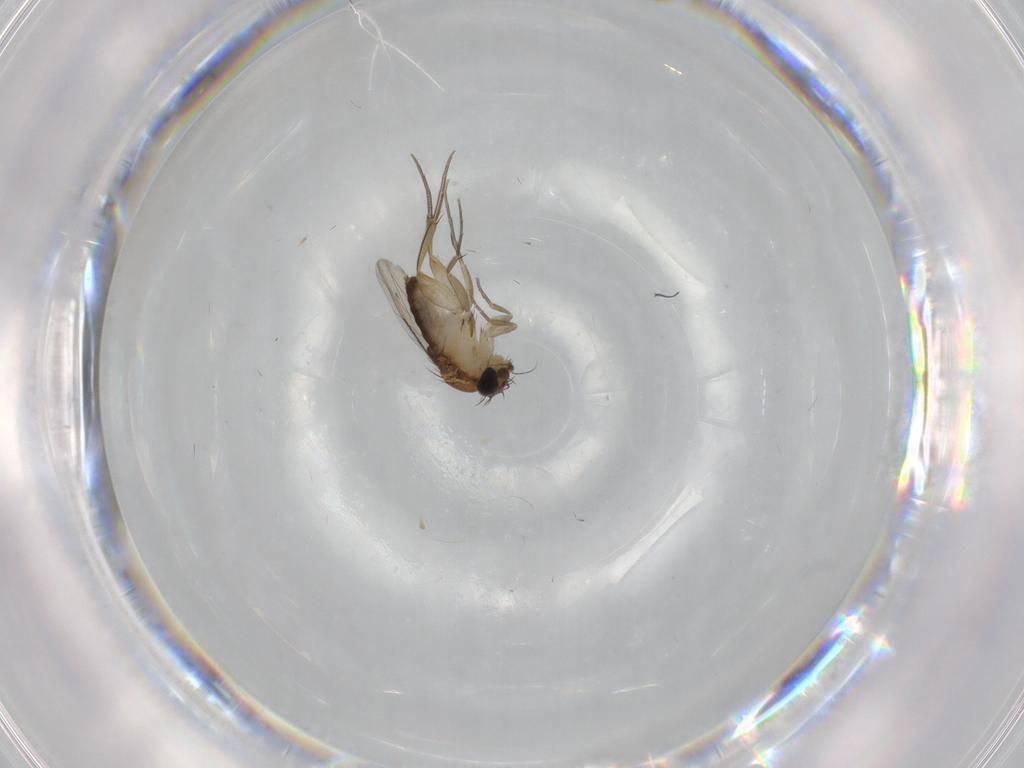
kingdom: Animalia
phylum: Arthropoda
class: Insecta
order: Diptera
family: Phoridae
